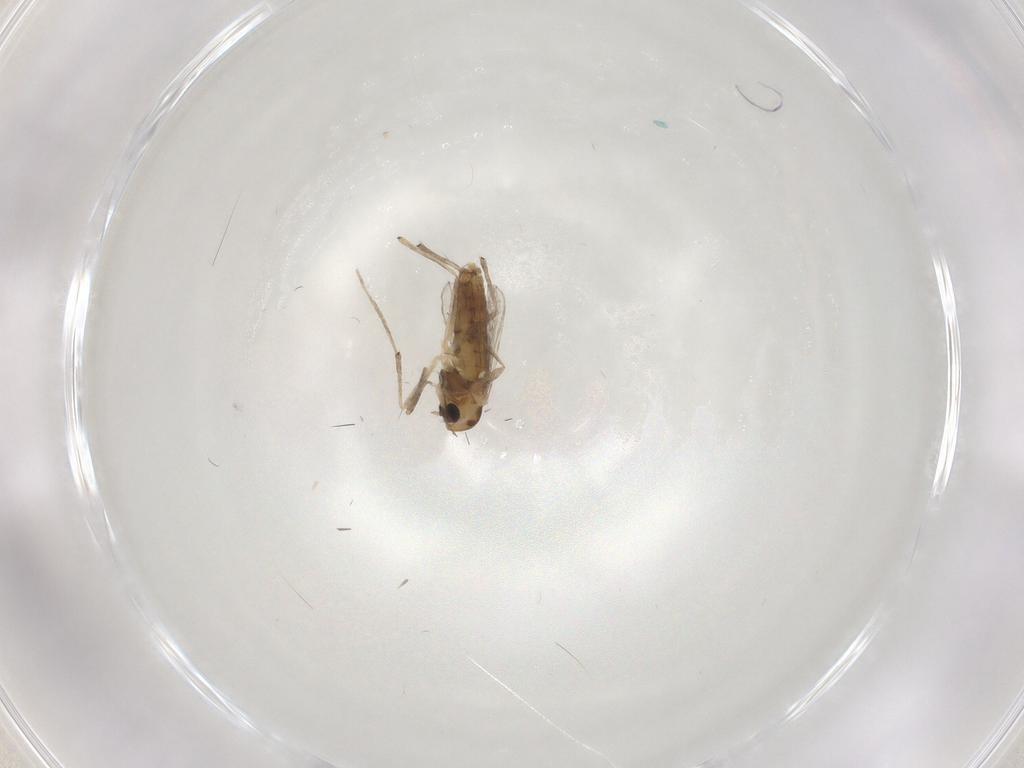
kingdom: Animalia
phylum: Arthropoda
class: Insecta
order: Diptera
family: Chironomidae
